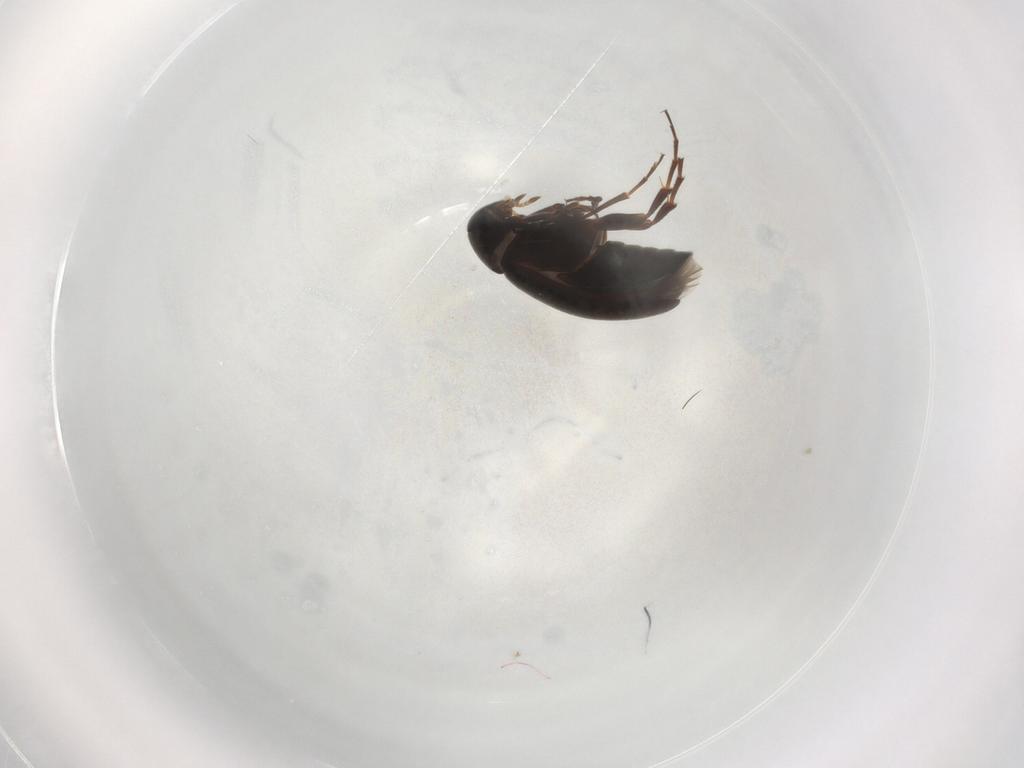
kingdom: Animalia
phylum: Arthropoda
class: Insecta
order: Coleoptera
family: Scraptiidae
